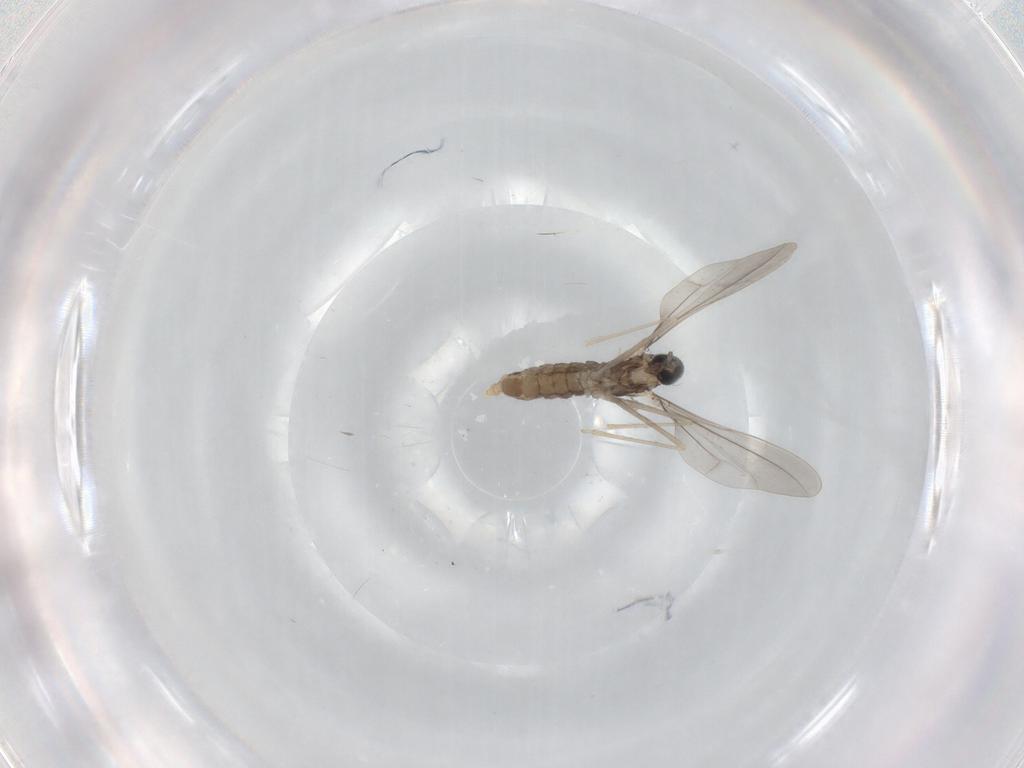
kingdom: Animalia
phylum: Arthropoda
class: Insecta
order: Diptera
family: Cecidomyiidae
